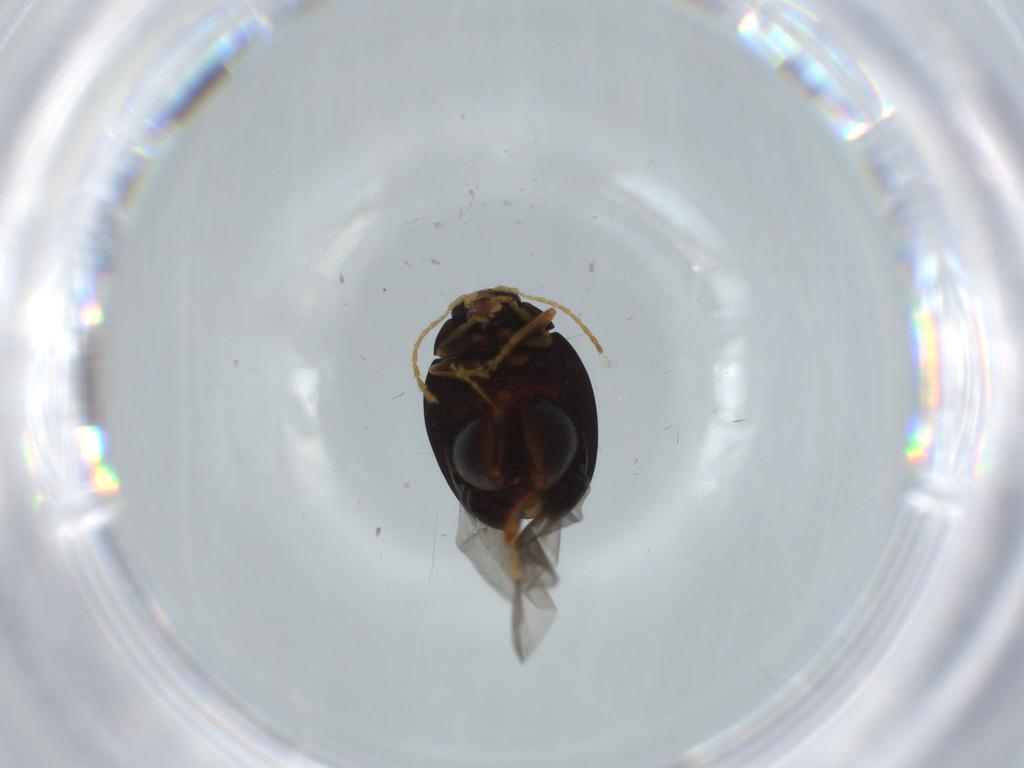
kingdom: Animalia
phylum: Arthropoda
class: Insecta
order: Coleoptera
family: Chrysomelidae
